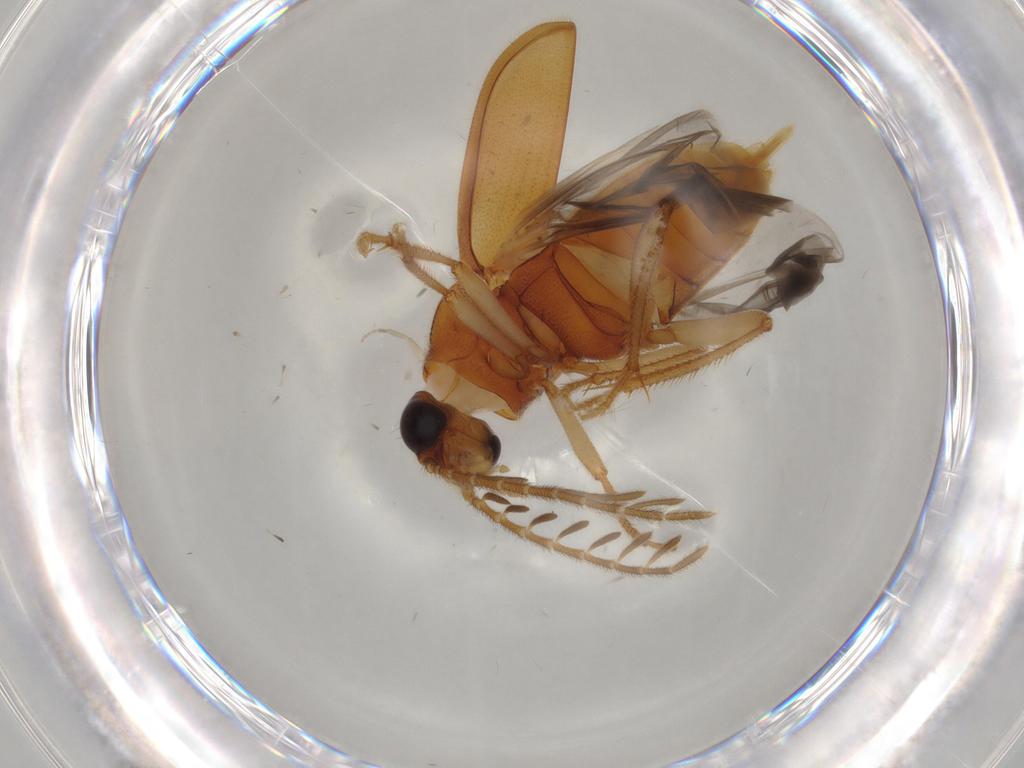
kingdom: Animalia
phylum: Arthropoda
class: Insecta
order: Coleoptera
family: Ptilodactylidae
